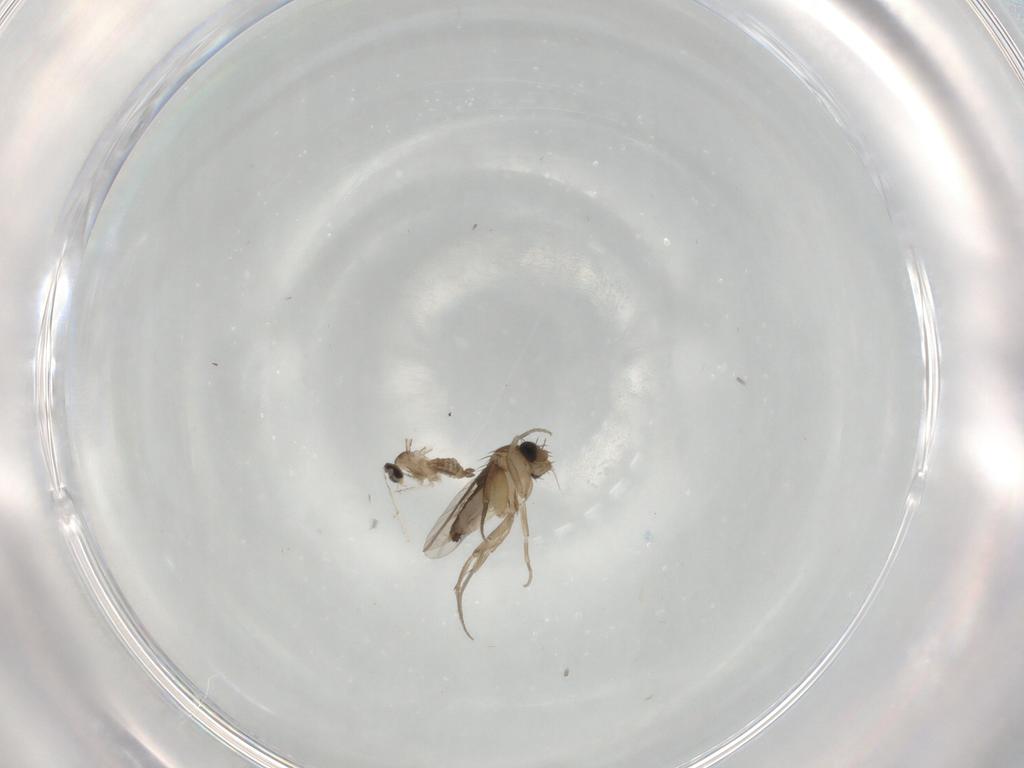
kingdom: Animalia
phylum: Arthropoda
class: Insecta
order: Diptera
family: Phoridae
